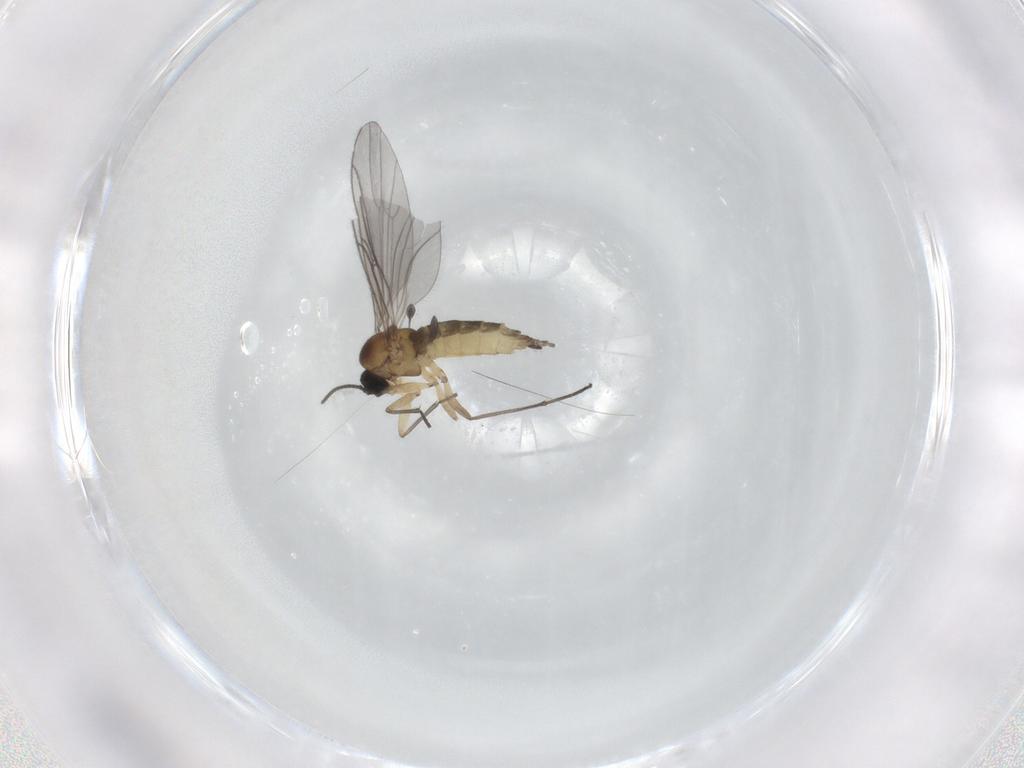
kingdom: Animalia
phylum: Arthropoda
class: Insecta
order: Diptera
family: Sciaridae
